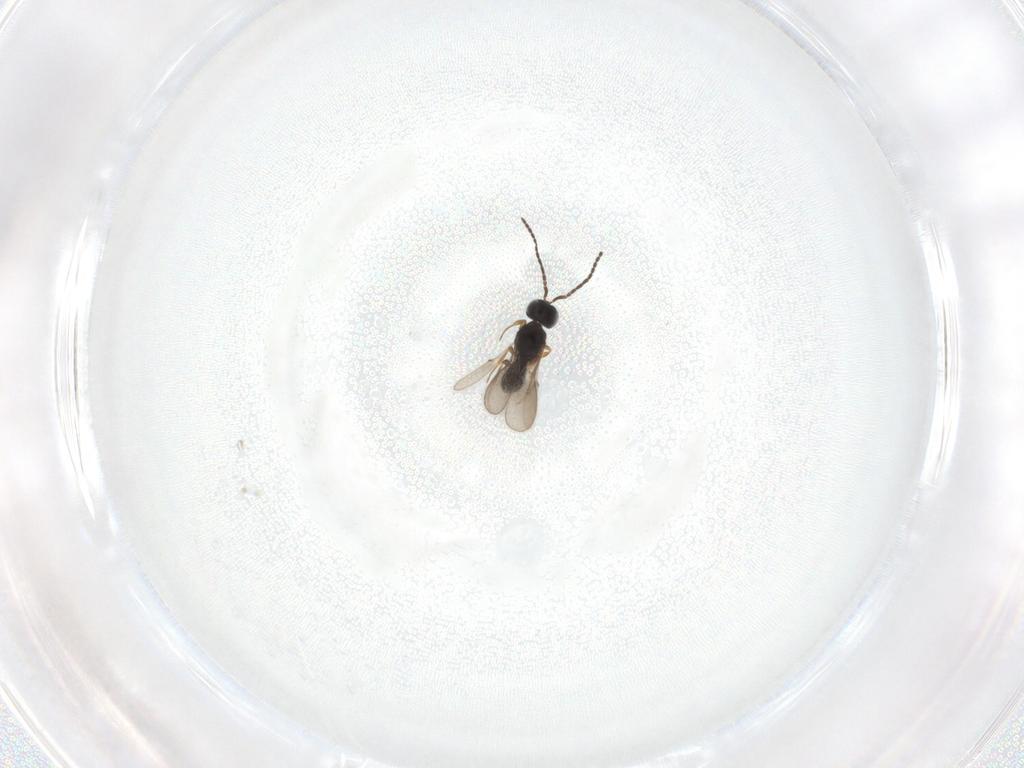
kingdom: Animalia
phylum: Arthropoda
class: Insecta
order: Hymenoptera
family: Scelionidae
